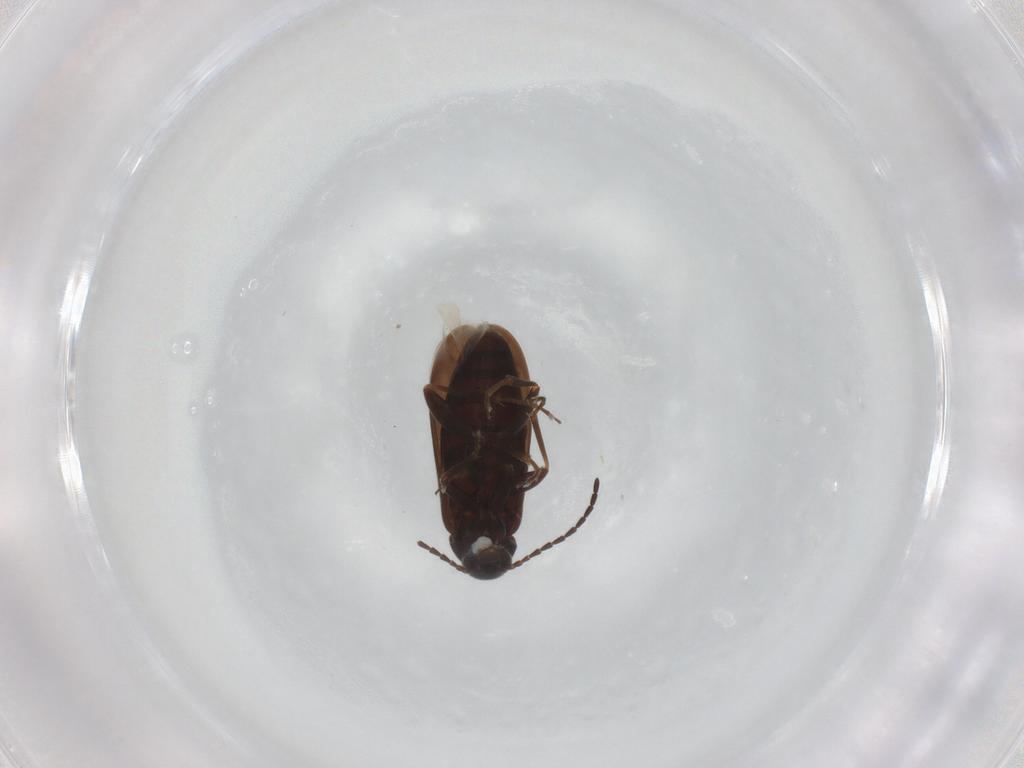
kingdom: Animalia
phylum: Arthropoda
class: Insecta
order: Coleoptera
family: Scraptiidae
